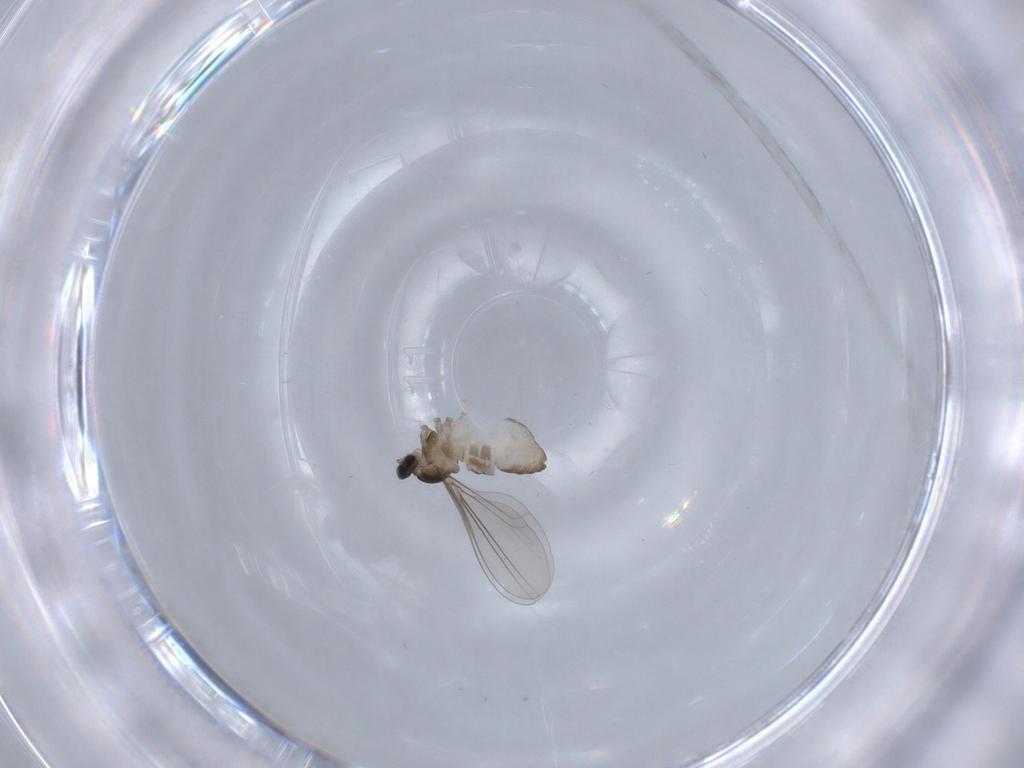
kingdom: Animalia
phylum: Arthropoda
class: Insecta
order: Diptera
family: Cecidomyiidae
